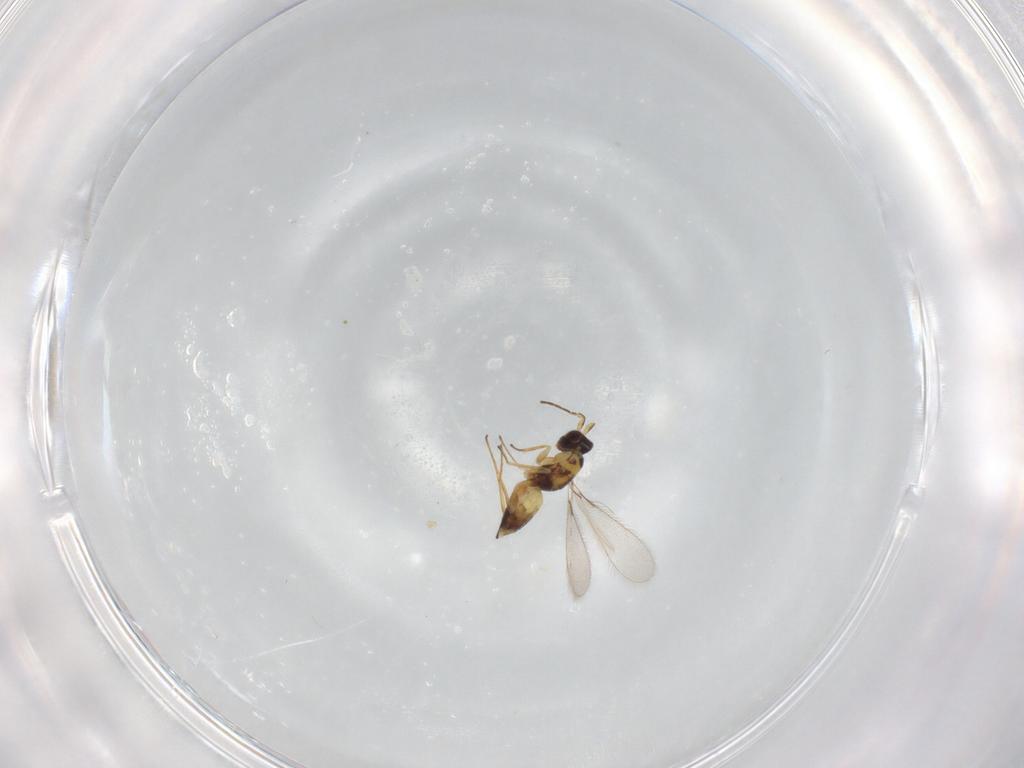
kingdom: Animalia
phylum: Arthropoda
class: Insecta
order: Hymenoptera
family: Mymaridae
